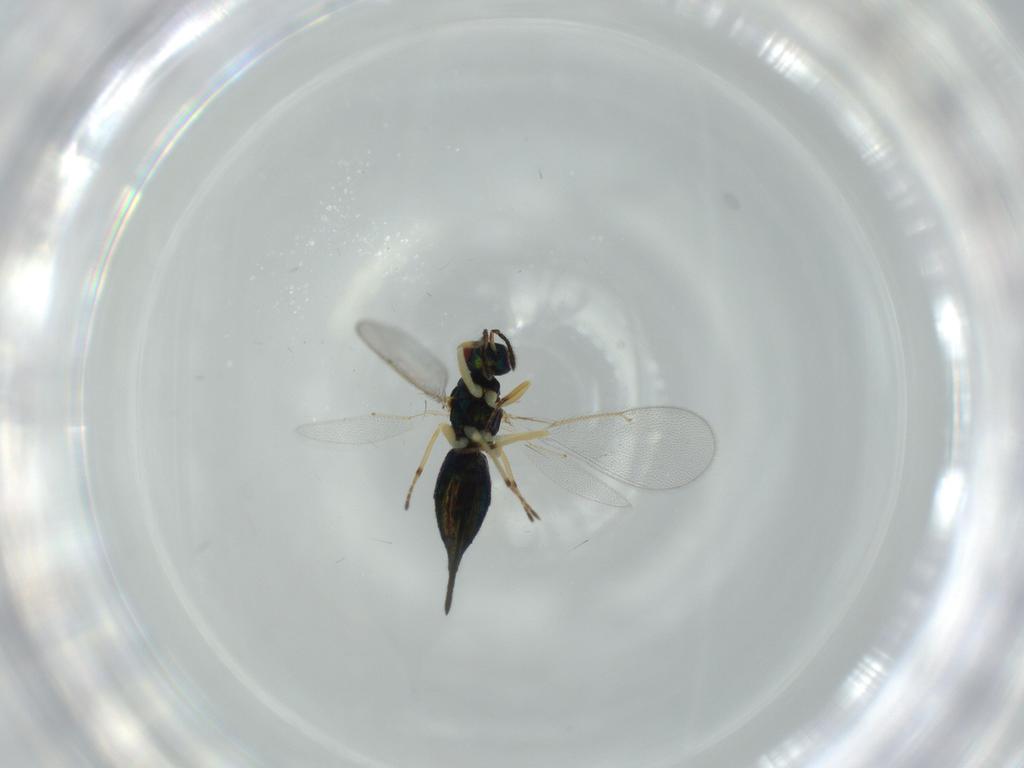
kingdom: Animalia
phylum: Arthropoda
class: Insecta
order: Hymenoptera
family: Eulophidae
